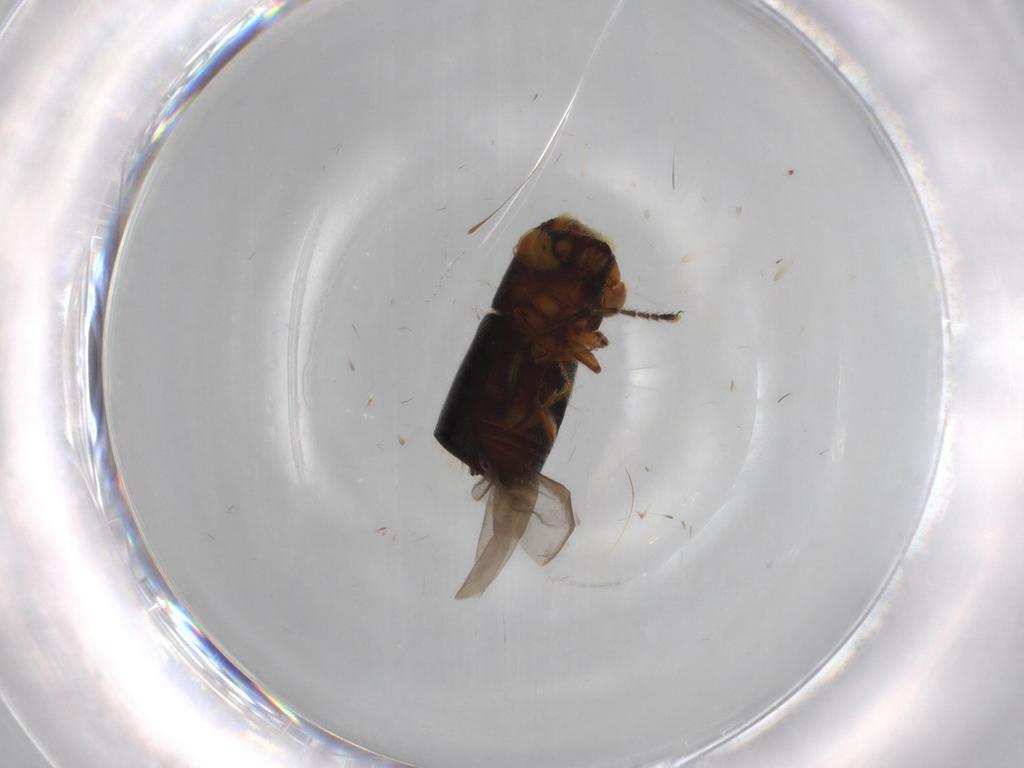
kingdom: Animalia
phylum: Arthropoda
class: Insecta
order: Coleoptera
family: Curculionidae
